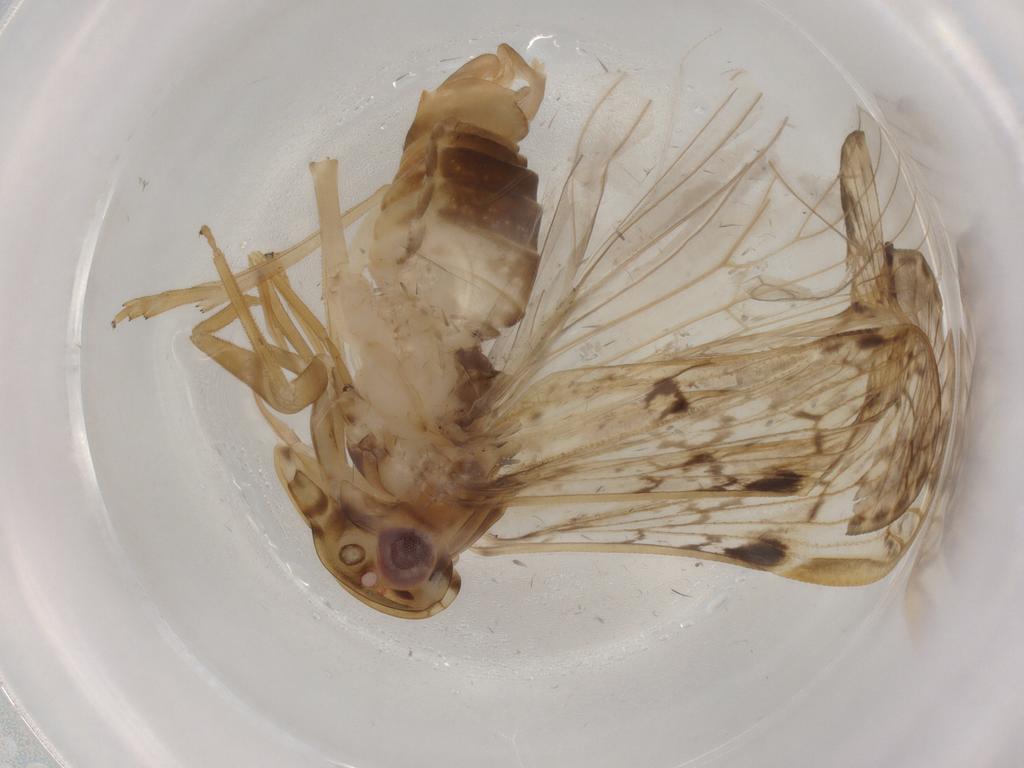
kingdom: Animalia
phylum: Arthropoda
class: Insecta
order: Hemiptera
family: Cixiidae
